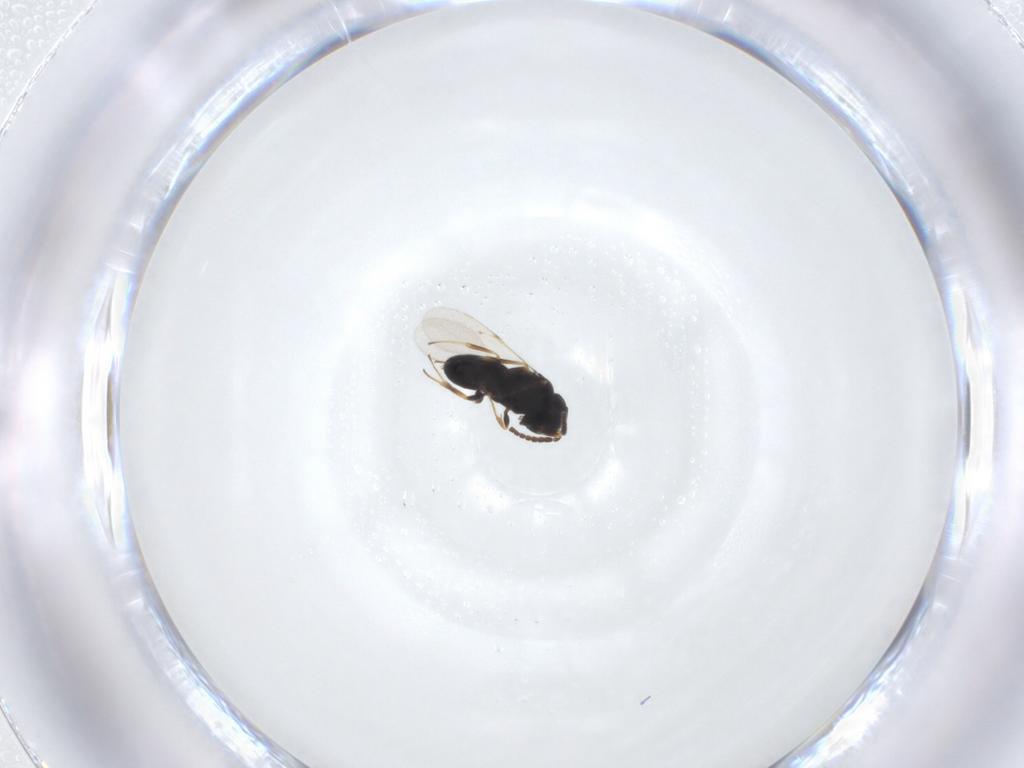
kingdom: Animalia
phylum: Arthropoda
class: Insecta
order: Hymenoptera
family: Scelionidae
